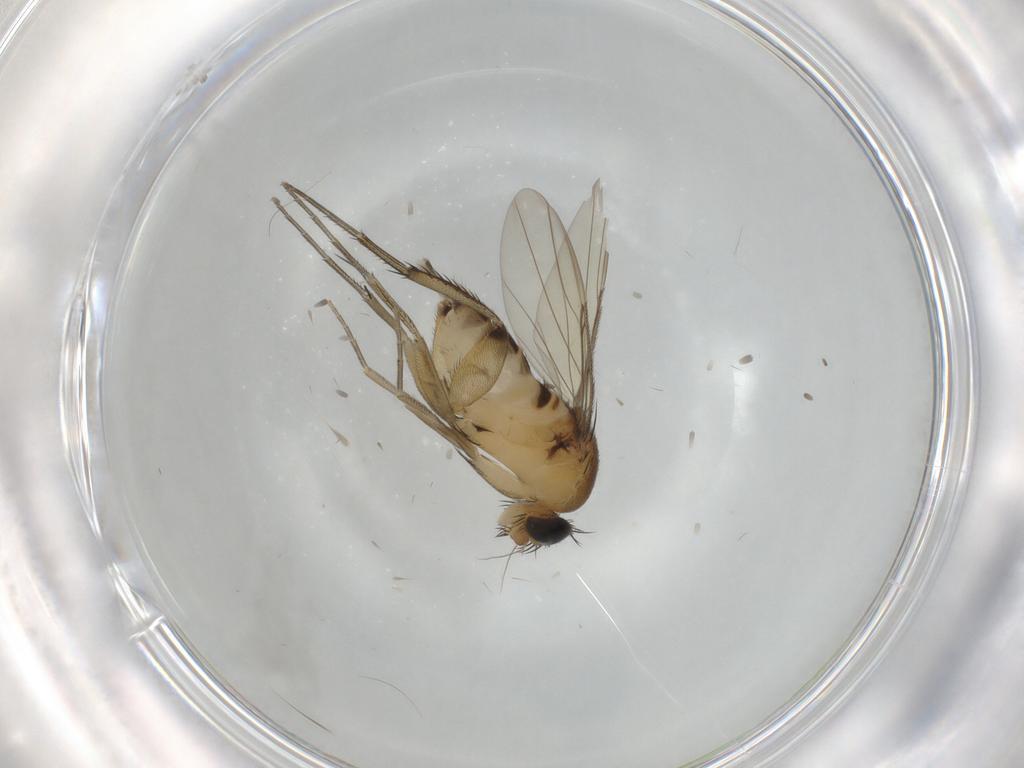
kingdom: Animalia
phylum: Arthropoda
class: Insecta
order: Diptera
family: Phoridae
